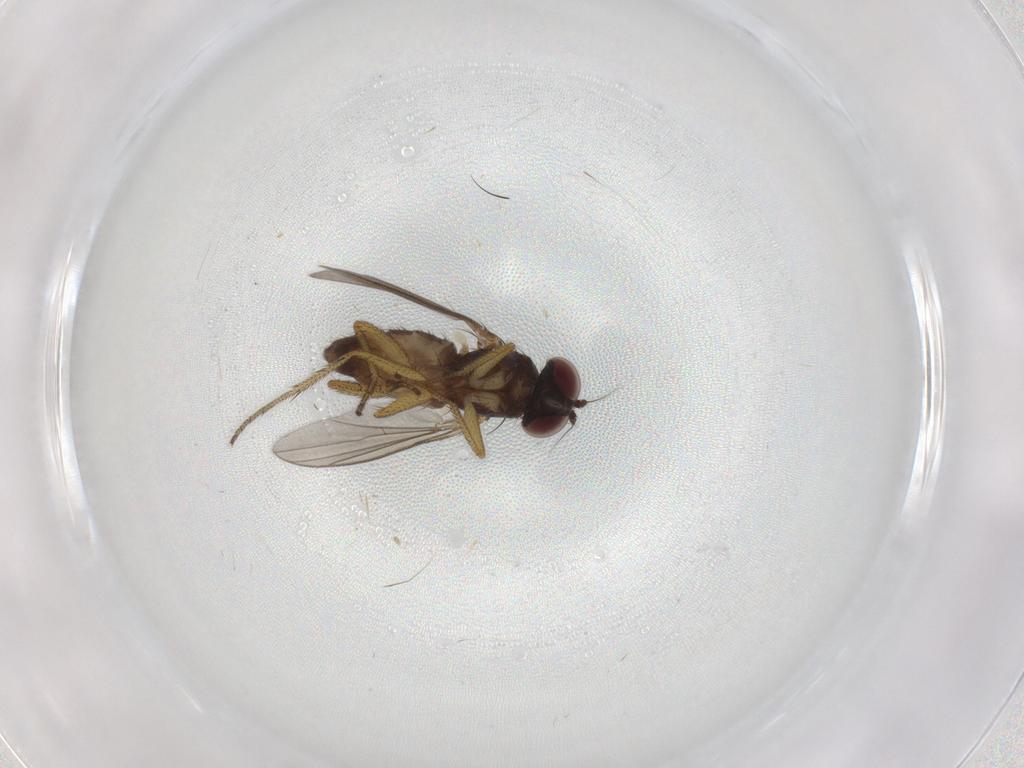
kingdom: Animalia
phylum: Arthropoda
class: Insecta
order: Diptera
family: Dolichopodidae
